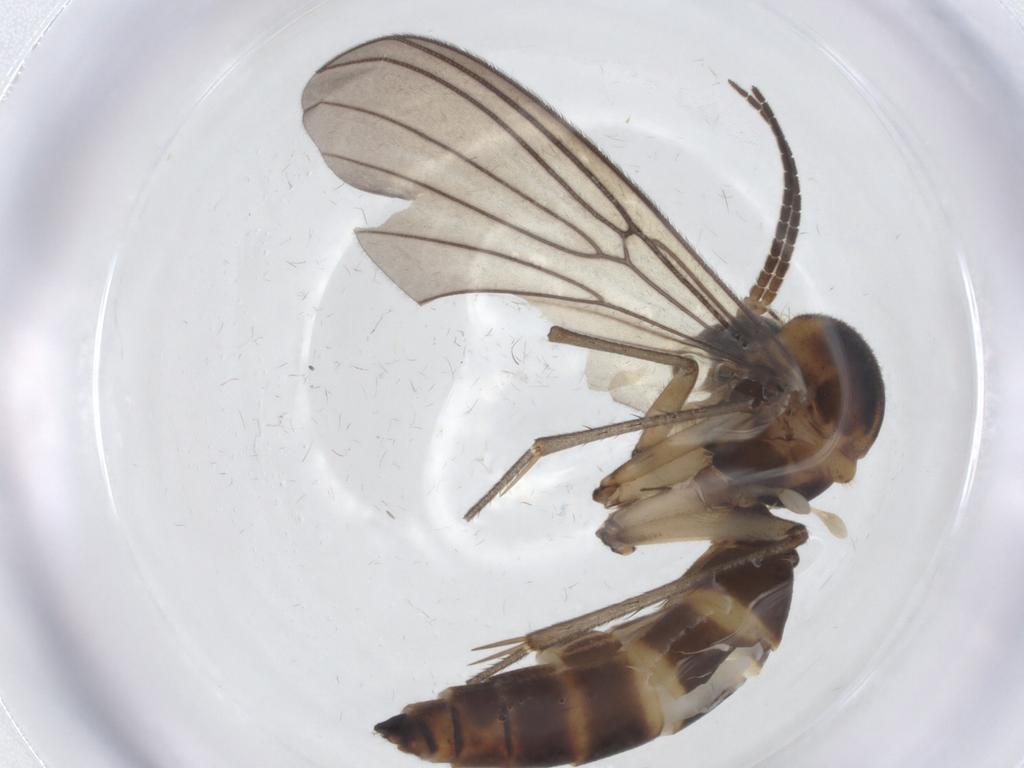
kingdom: Animalia
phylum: Arthropoda
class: Insecta
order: Diptera
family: Mycetophilidae
